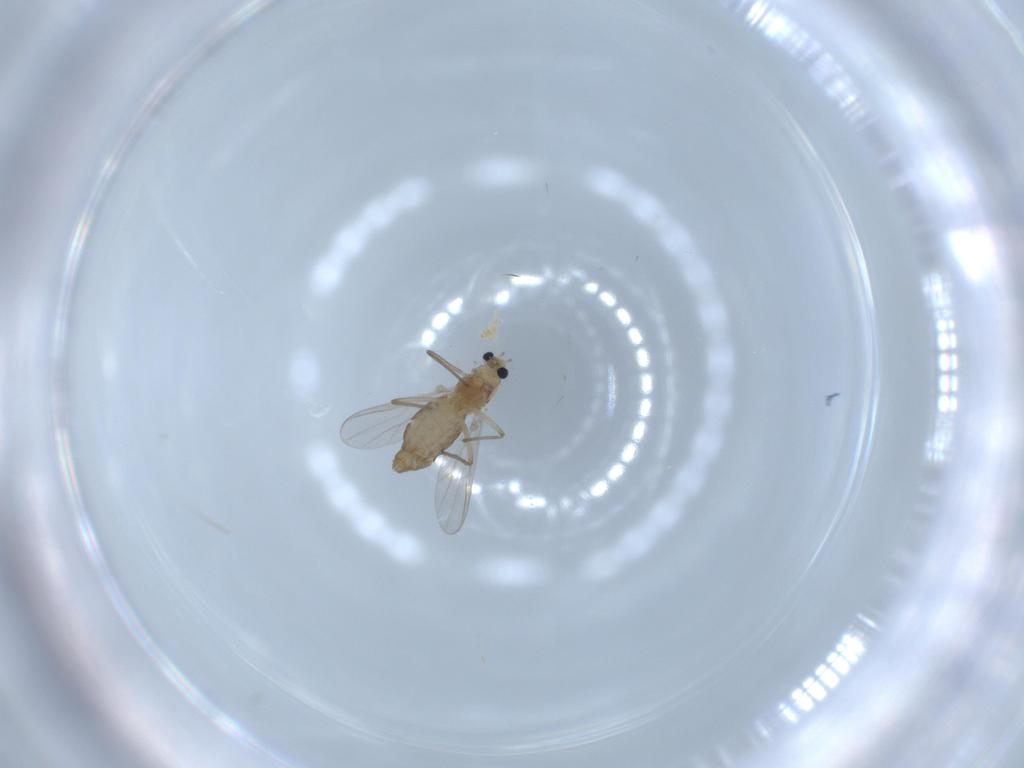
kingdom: Animalia
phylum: Arthropoda
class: Insecta
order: Diptera
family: Chironomidae
